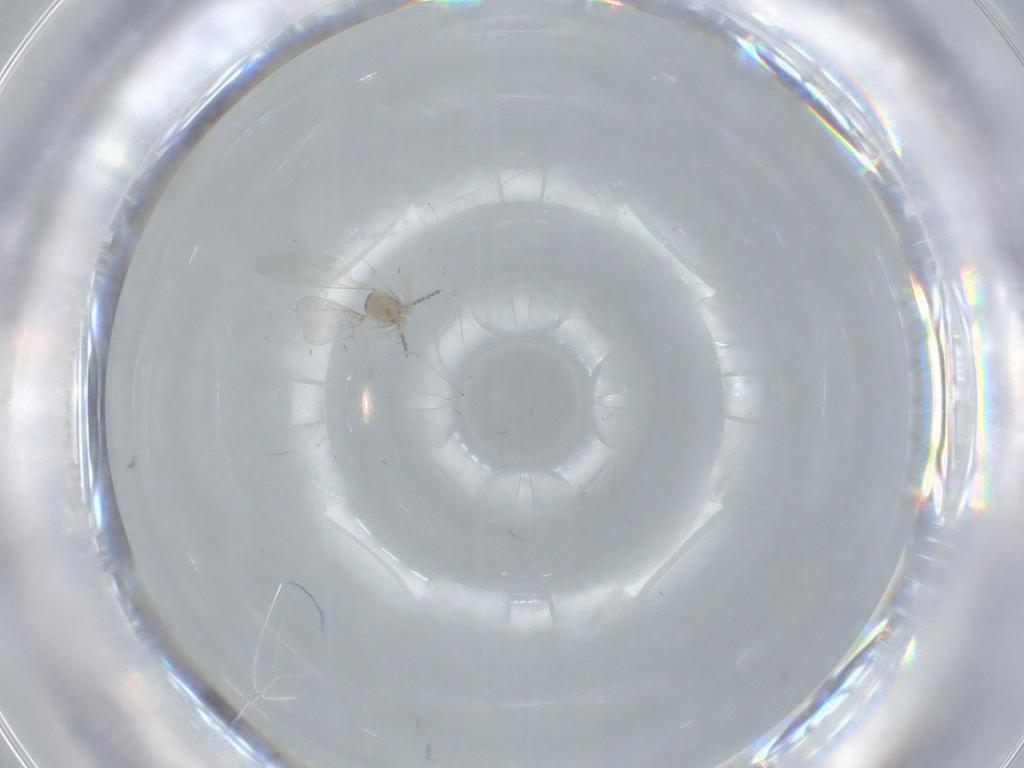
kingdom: Animalia
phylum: Arthropoda
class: Insecta
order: Diptera
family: Cecidomyiidae
